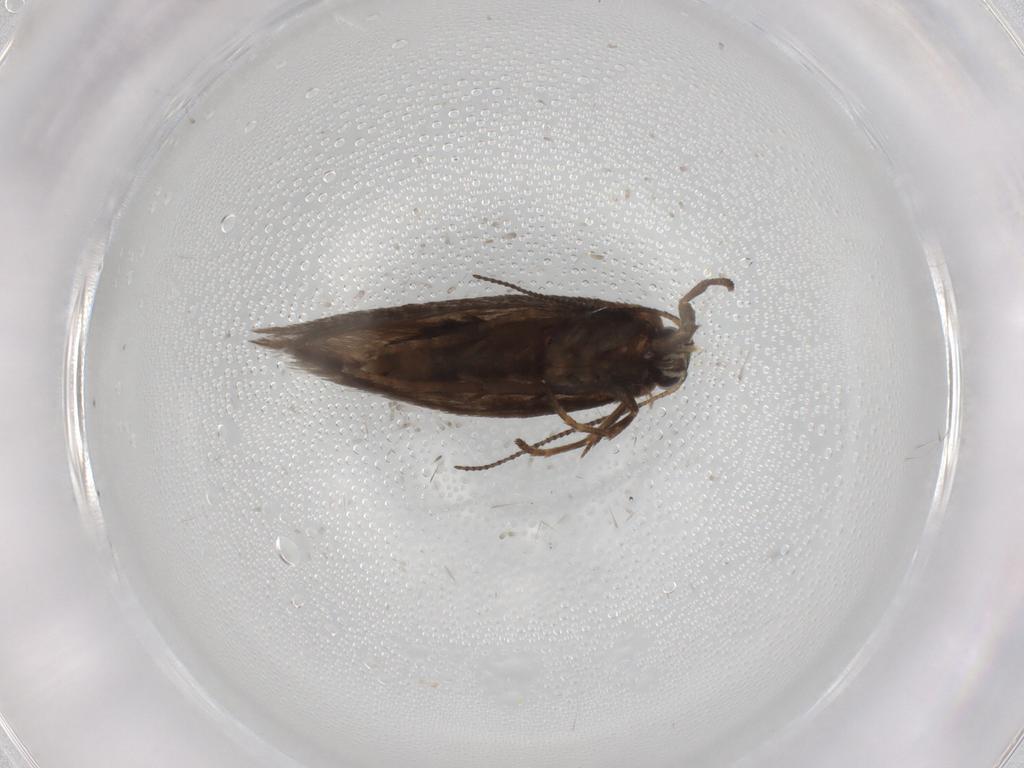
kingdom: Animalia
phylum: Arthropoda
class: Insecta
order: Lepidoptera
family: Nepticulidae
